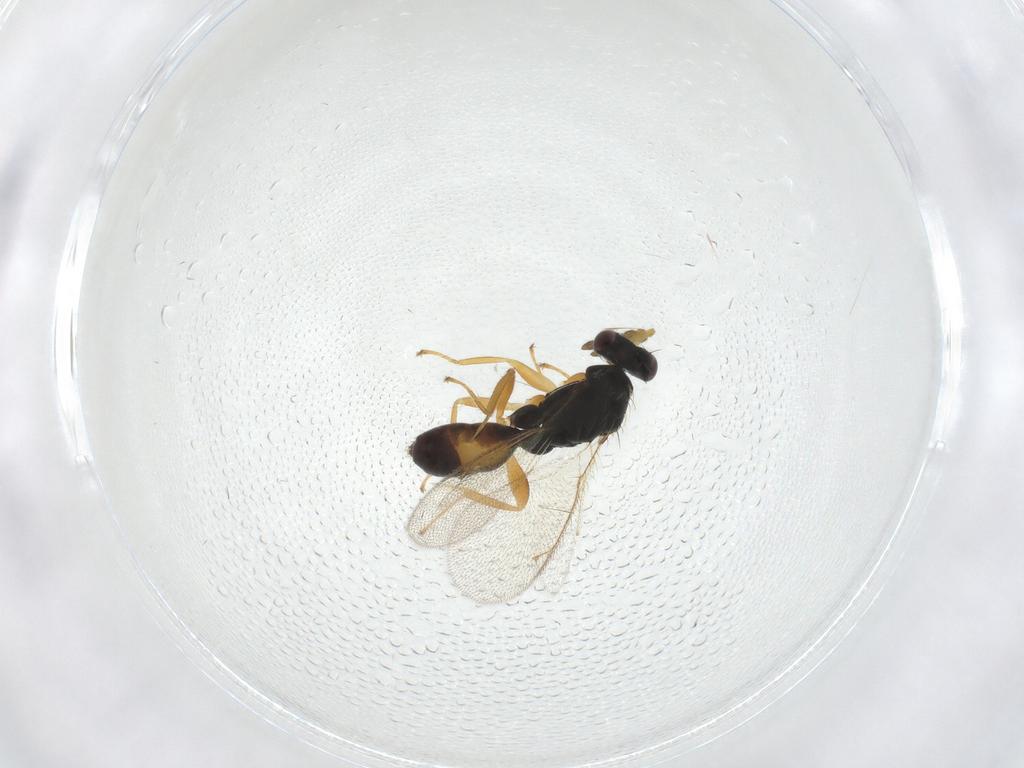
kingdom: Animalia
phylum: Arthropoda
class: Insecta
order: Hymenoptera
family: Eulophidae
